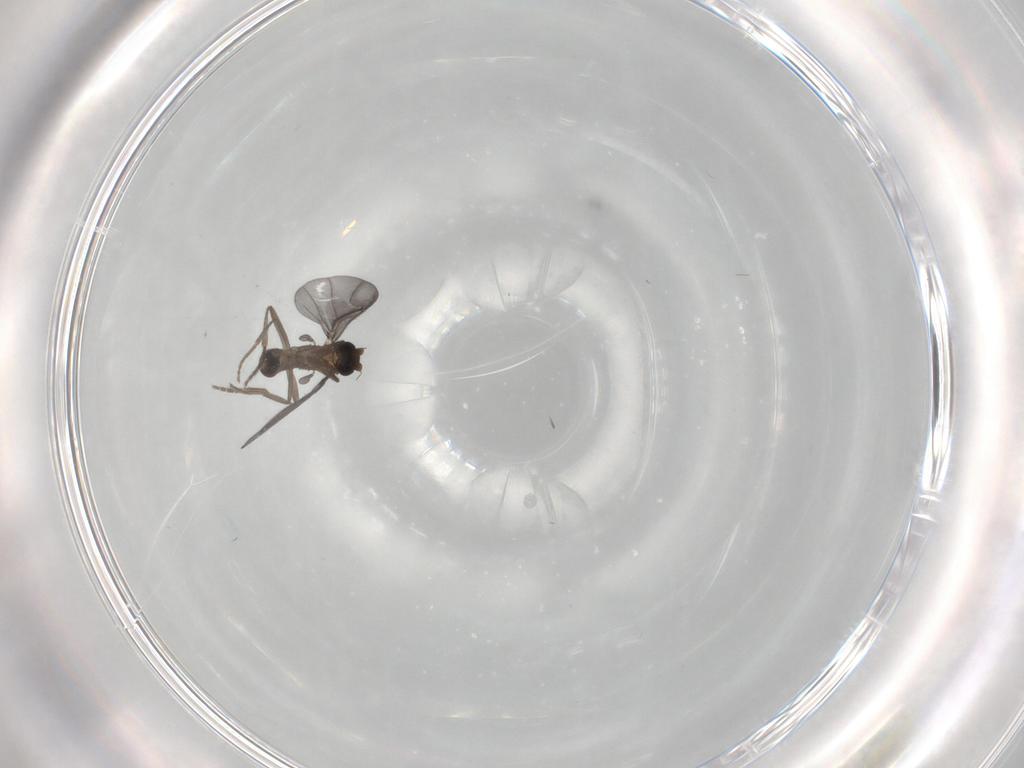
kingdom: Animalia
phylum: Arthropoda
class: Insecta
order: Diptera
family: Phoridae
